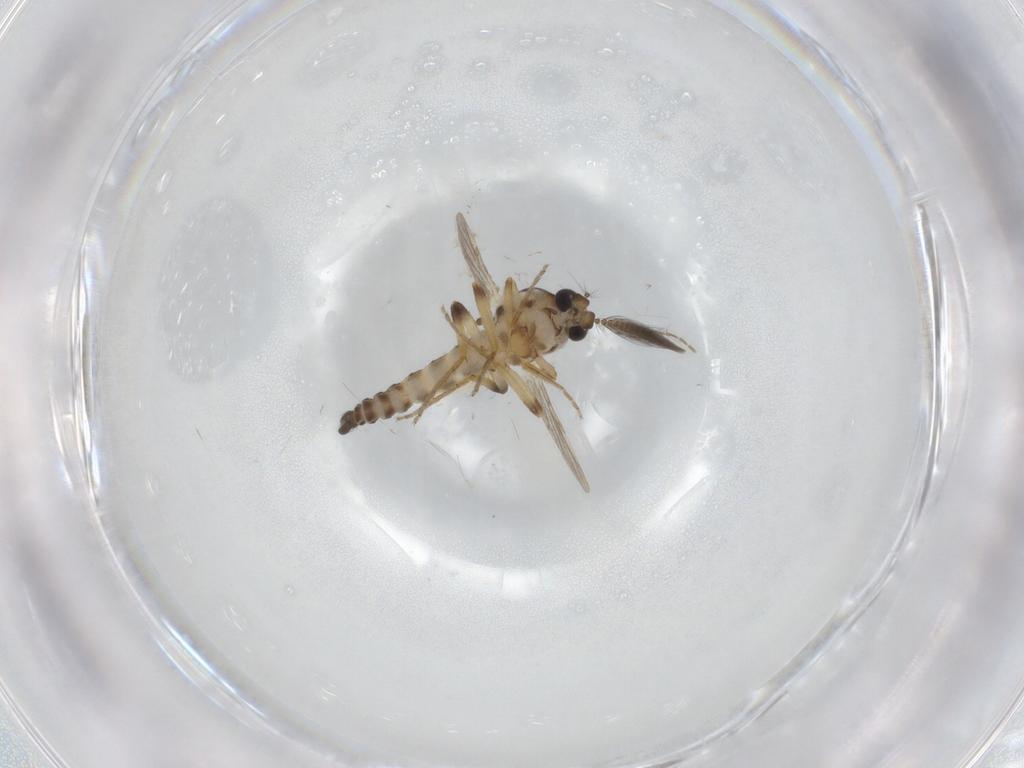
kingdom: Animalia
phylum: Arthropoda
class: Insecta
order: Diptera
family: Ceratopogonidae
